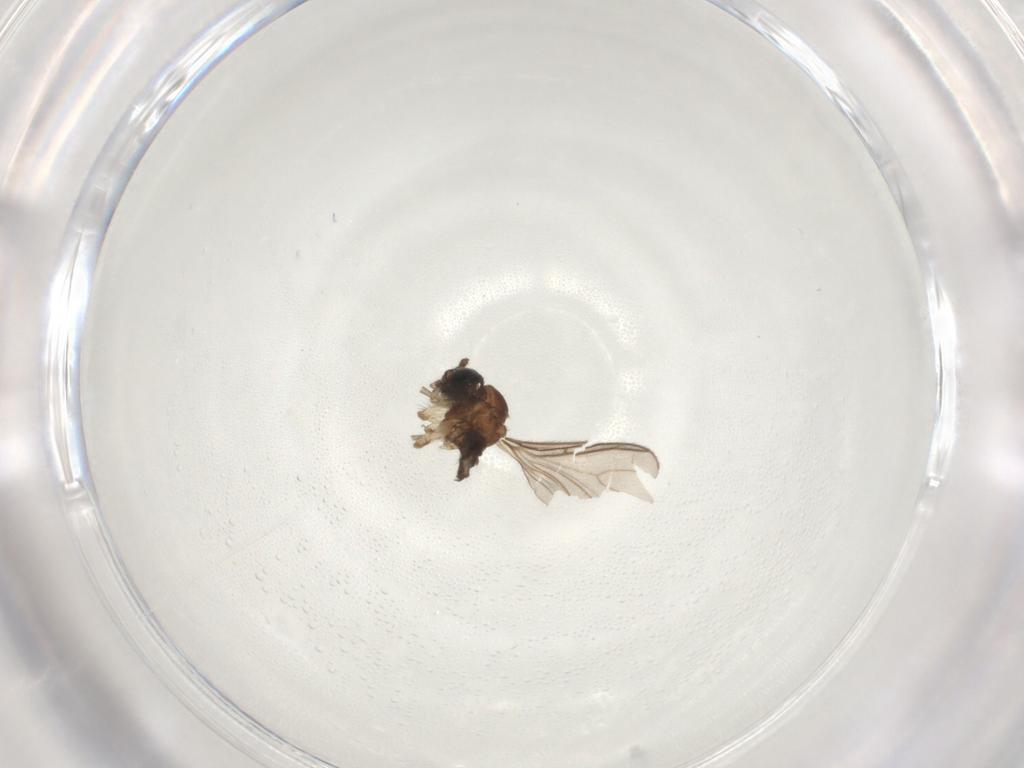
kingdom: Animalia
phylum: Arthropoda
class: Insecta
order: Diptera
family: Sciaridae
